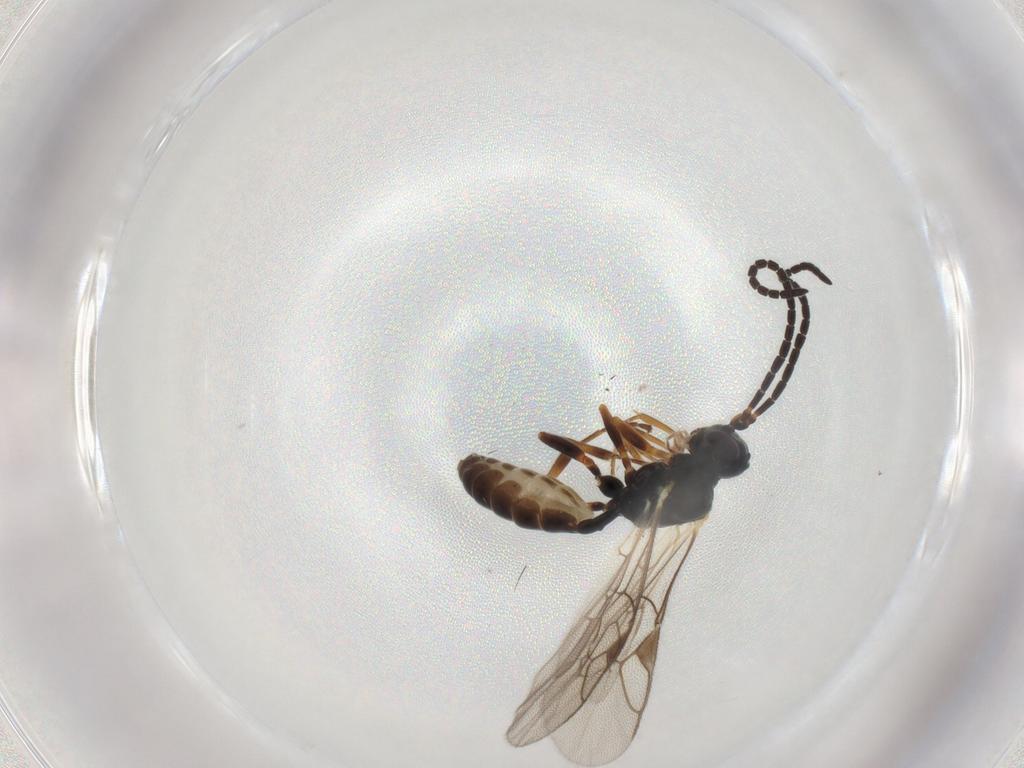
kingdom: Animalia
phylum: Arthropoda
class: Insecta
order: Hymenoptera
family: Ichneumonidae
